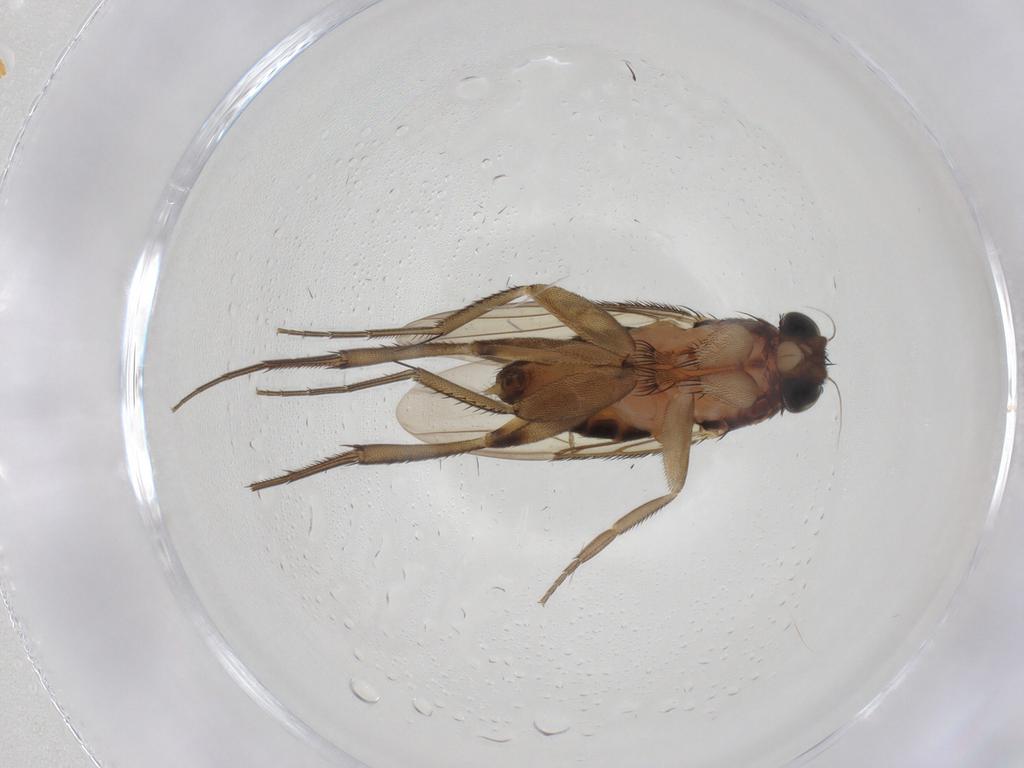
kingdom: Animalia
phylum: Arthropoda
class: Insecta
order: Diptera
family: Phoridae
